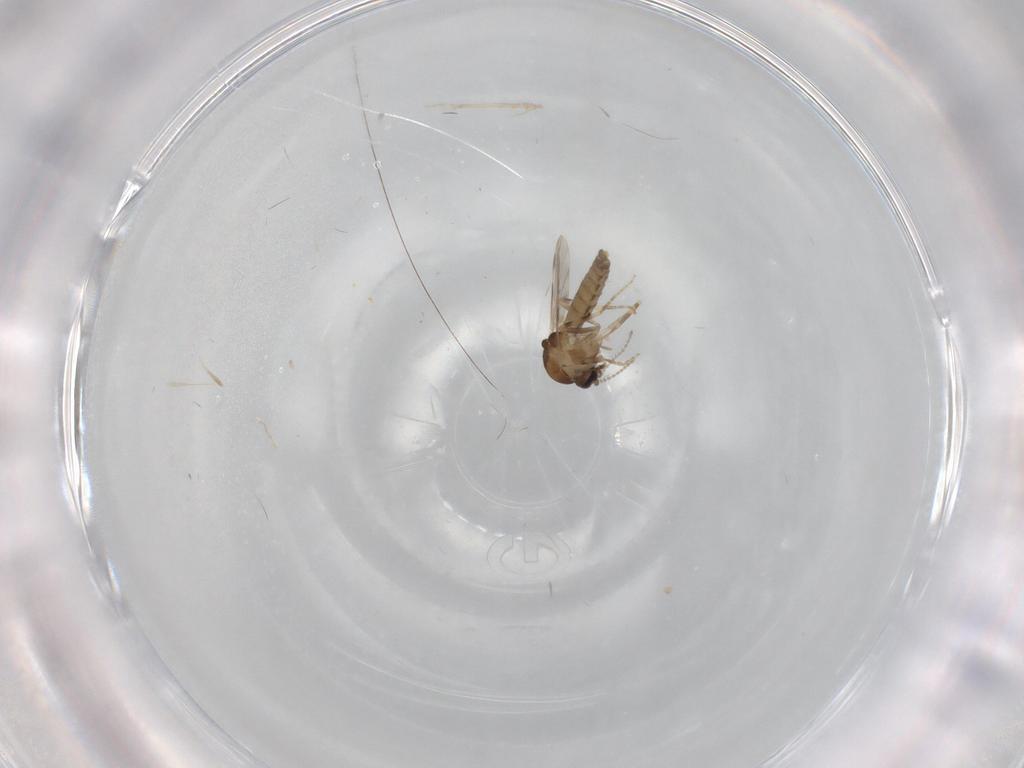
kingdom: Animalia
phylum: Arthropoda
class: Insecta
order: Diptera
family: Ceratopogonidae
